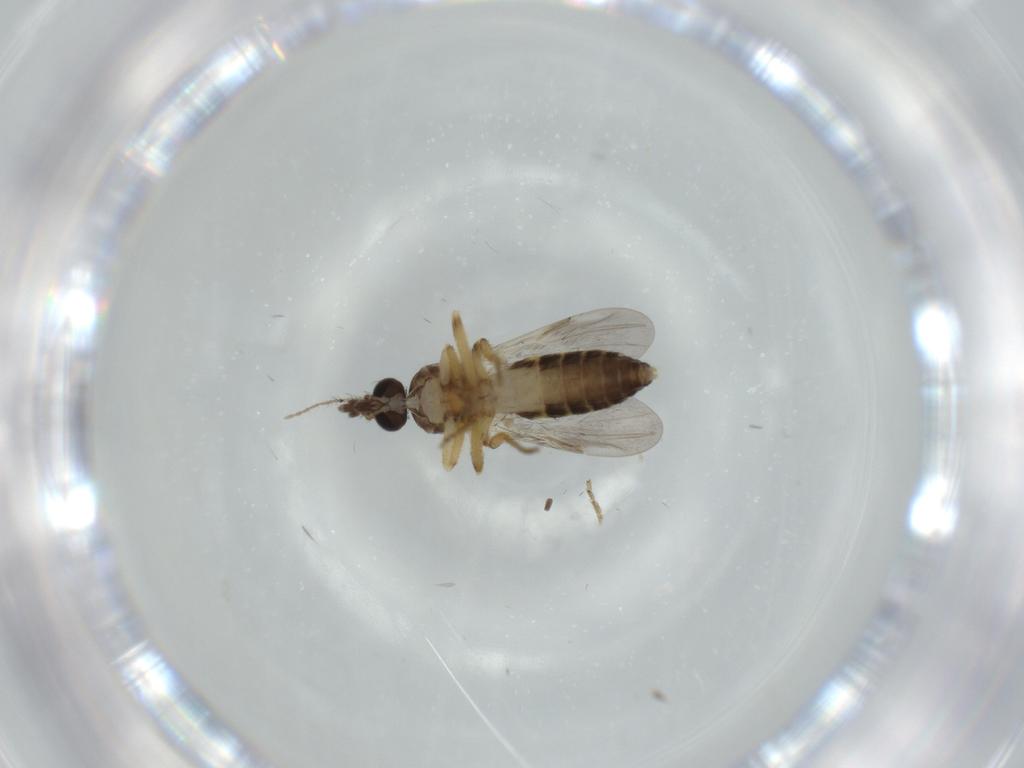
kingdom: Animalia
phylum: Arthropoda
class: Insecta
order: Diptera
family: Ceratopogonidae
